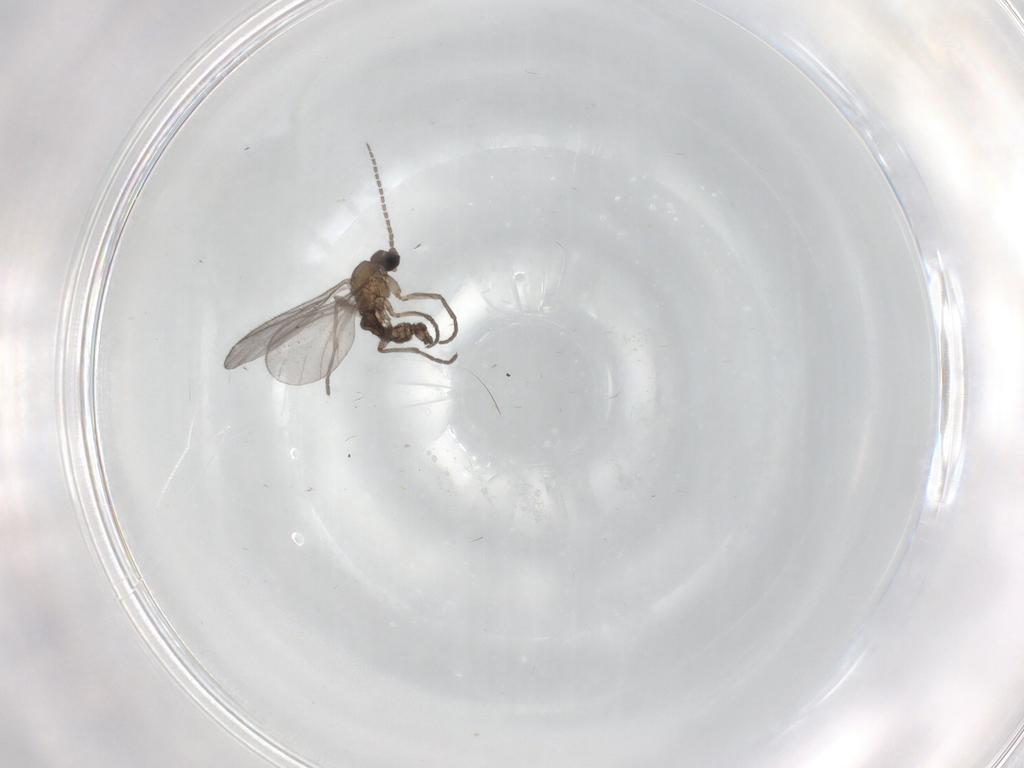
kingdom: Animalia
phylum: Arthropoda
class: Insecta
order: Diptera
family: Sciaridae
